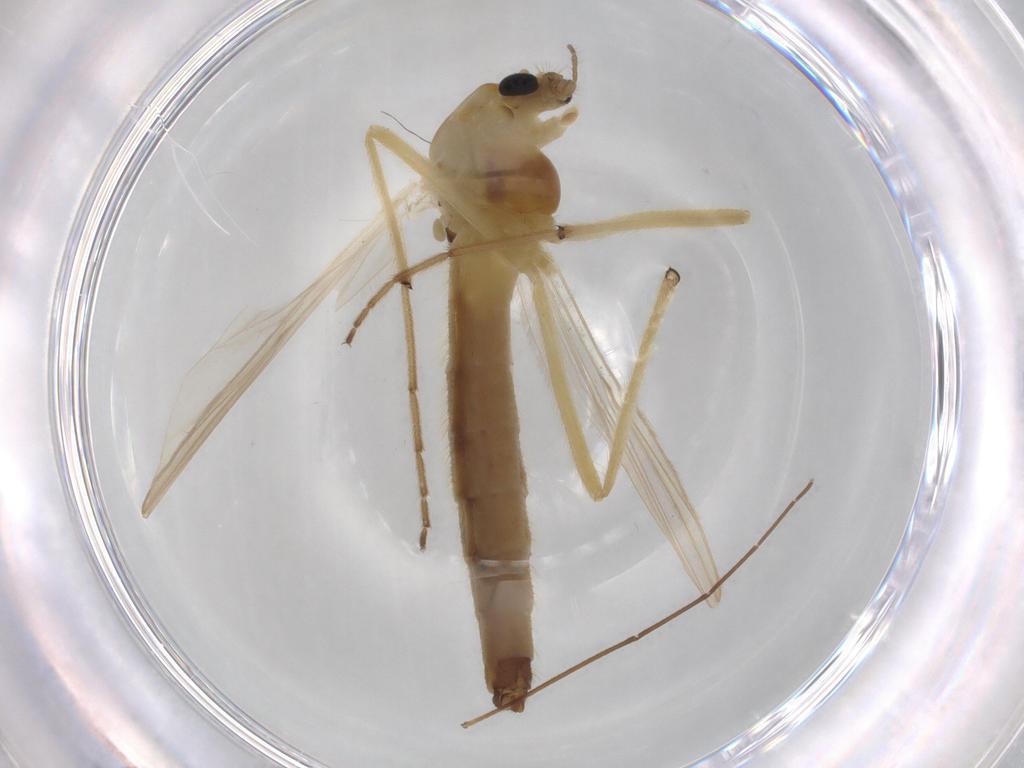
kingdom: Animalia
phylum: Arthropoda
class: Insecta
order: Diptera
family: Chironomidae
